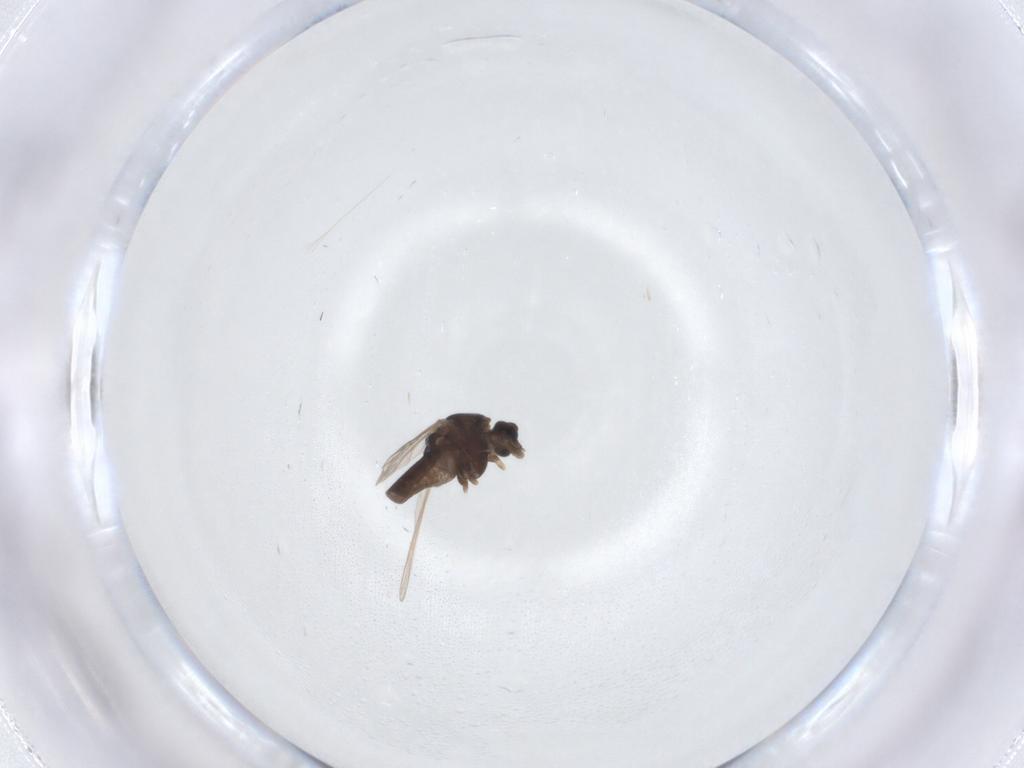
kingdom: Animalia
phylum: Arthropoda
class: Insecta
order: Diptera
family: Chironomidae
